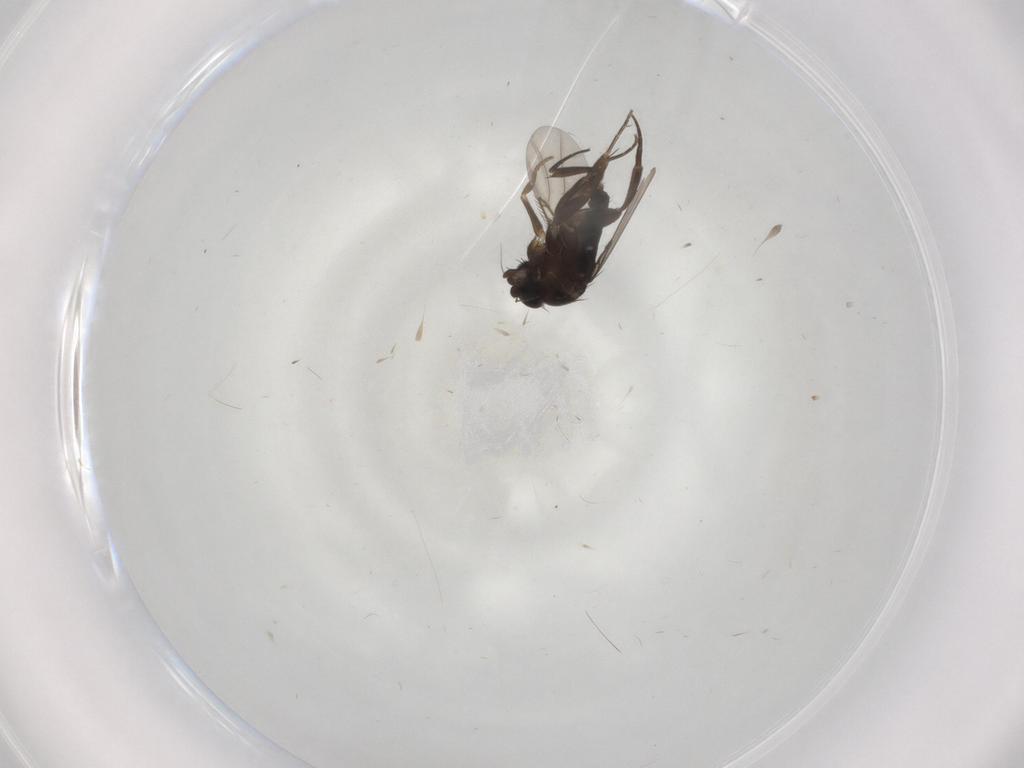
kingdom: Animalia
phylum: Arthropoda
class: Insecta
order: Diptera
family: Phoridae
